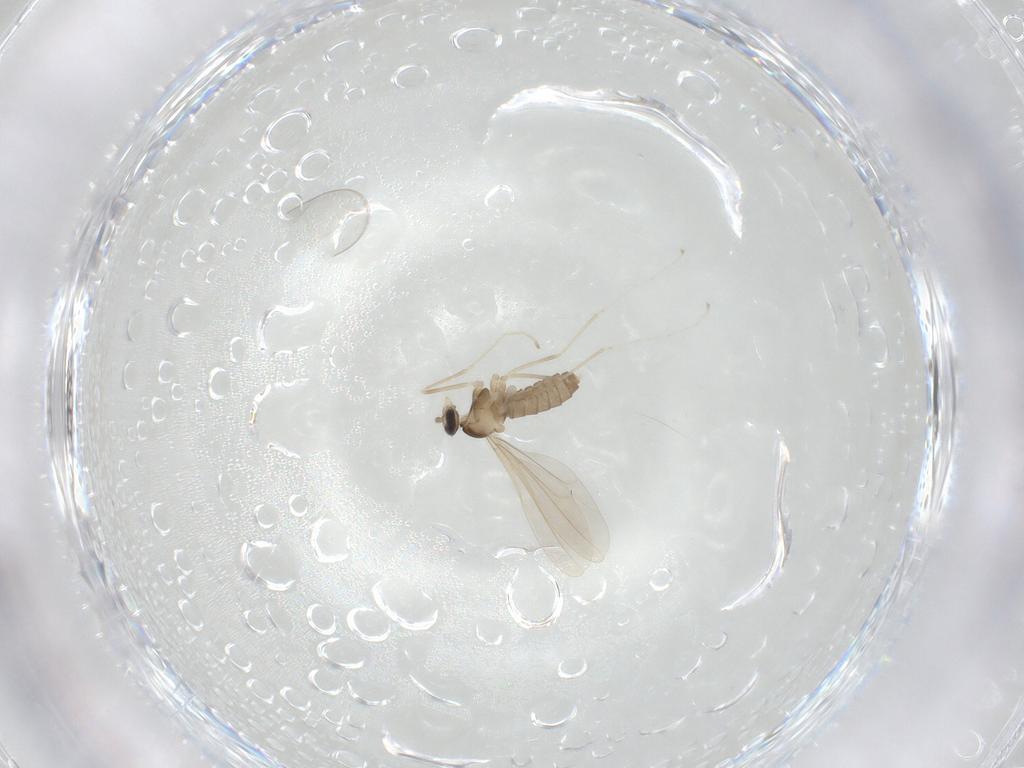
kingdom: Animalia
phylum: Arthropoda
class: Insecta
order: Diptera
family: Cecidomyiidae
